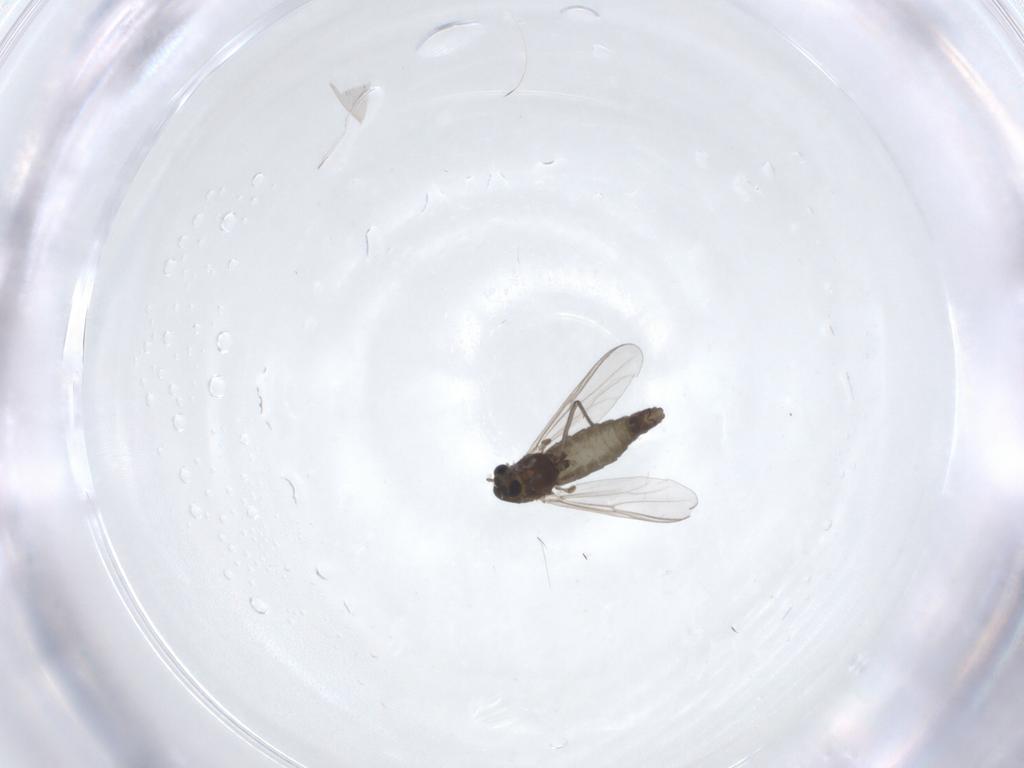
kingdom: Animalia
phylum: Arthropoda
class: Insecta
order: Diptera
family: Chironomidae
